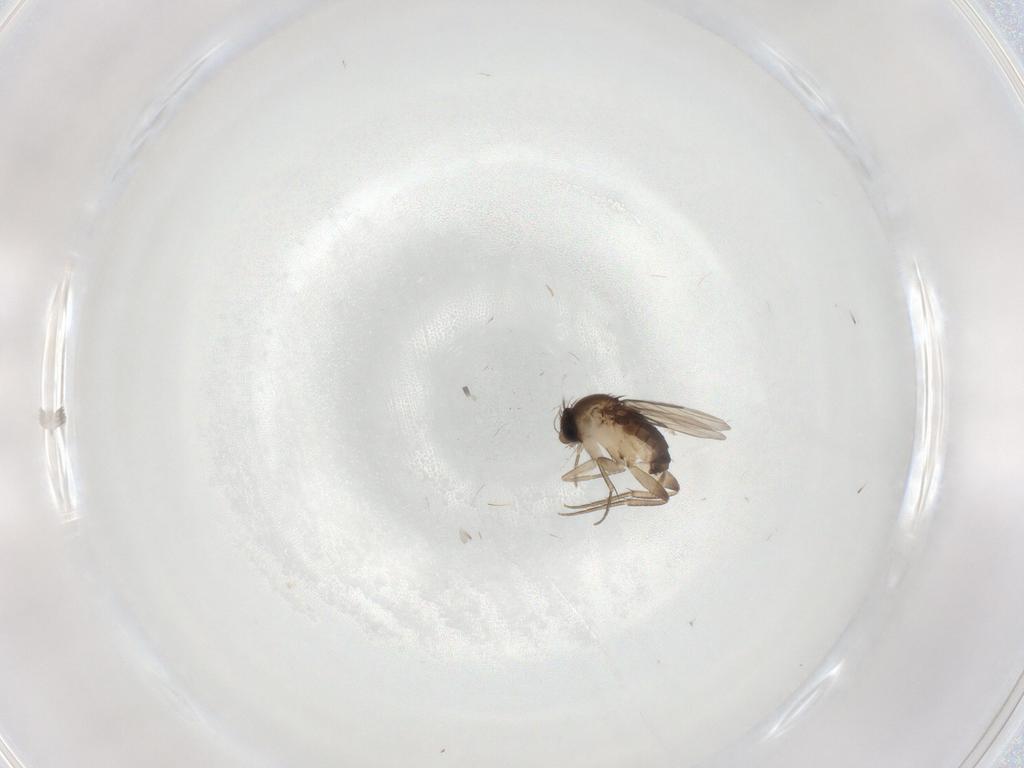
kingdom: Animalia
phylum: Arthropoda
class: Insecta
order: Diptera
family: Phoridae
